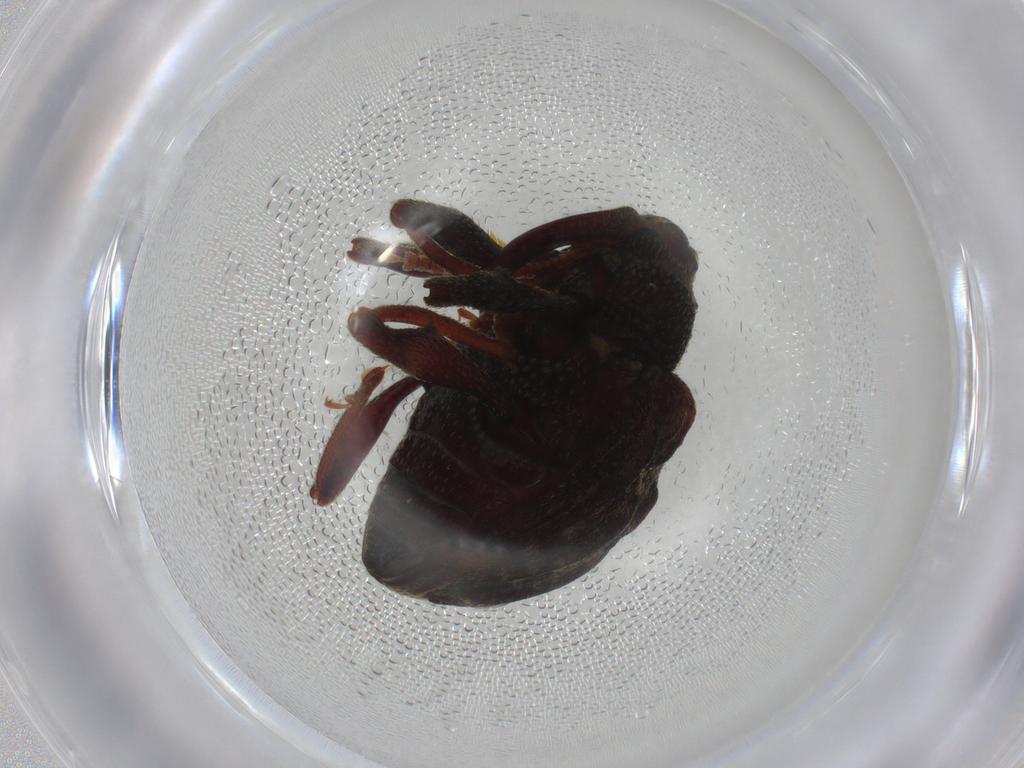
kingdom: Animalia
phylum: Arthropoda
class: Insecta
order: Coleoptera
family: Curculionidae
